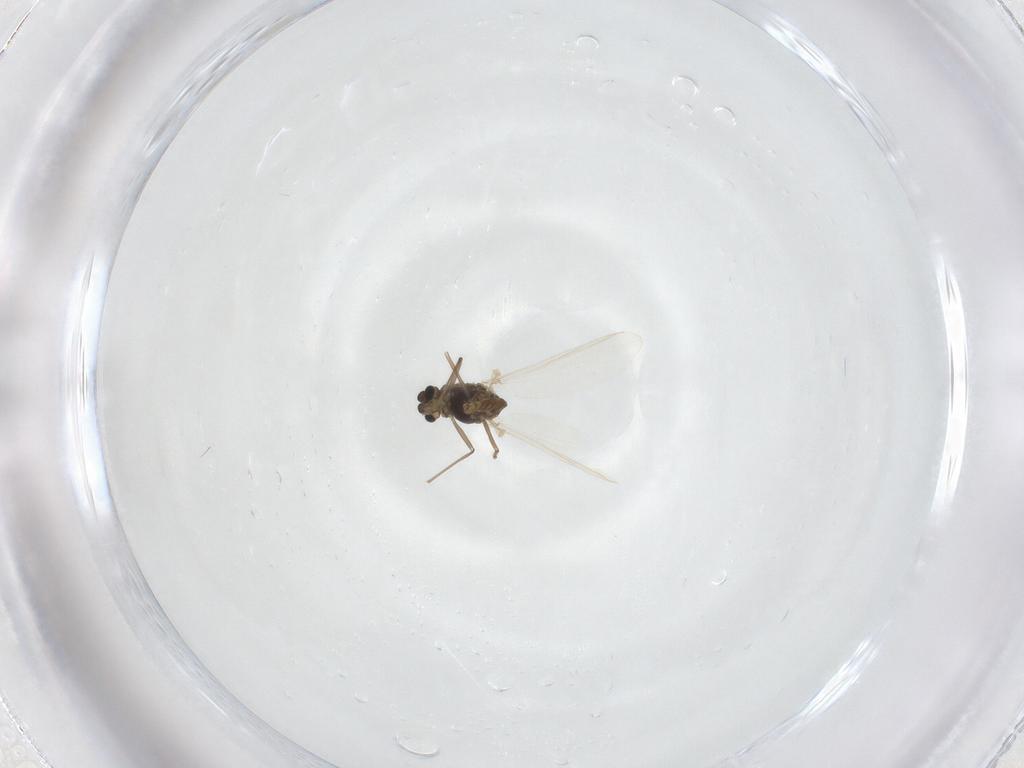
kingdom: Animalia
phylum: Arthropoda
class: Insecta
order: Diptera
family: Chironomidae
